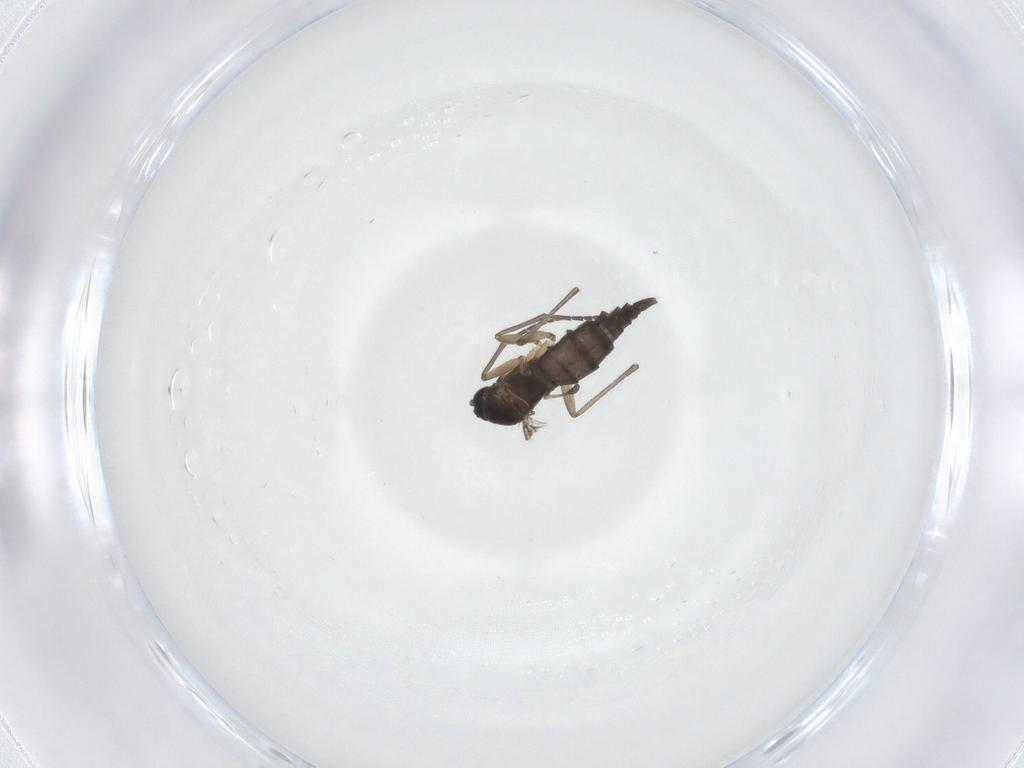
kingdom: Animalia
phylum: Arthropoda
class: Insecta
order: Diptera
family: Sciaridae
